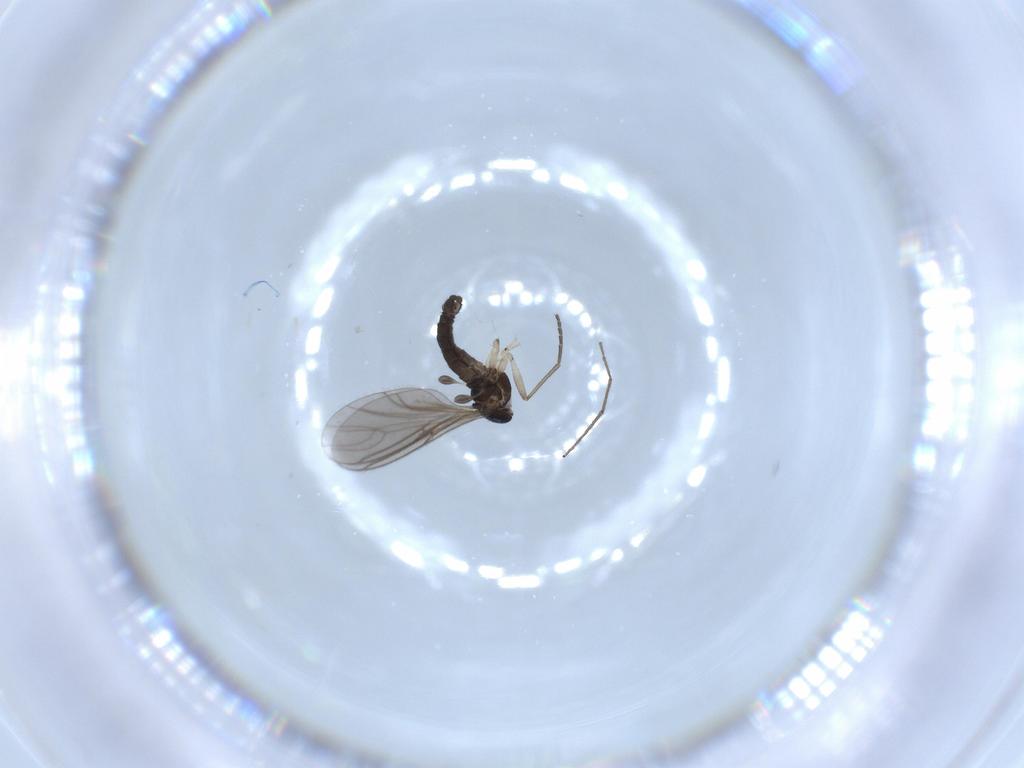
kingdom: Animalia
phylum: Arthropoda
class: Insecta
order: Diptera
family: Sciaridae
